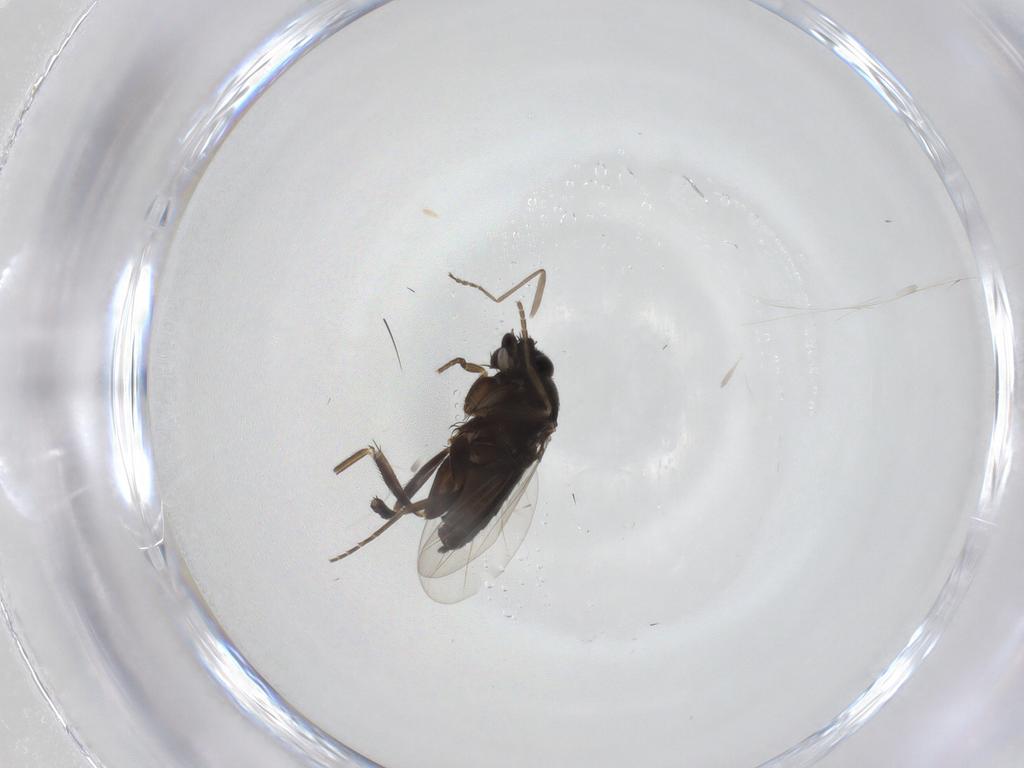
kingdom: Animalia
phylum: Arthropoda
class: Insecta
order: Diptera
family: Phoridae
